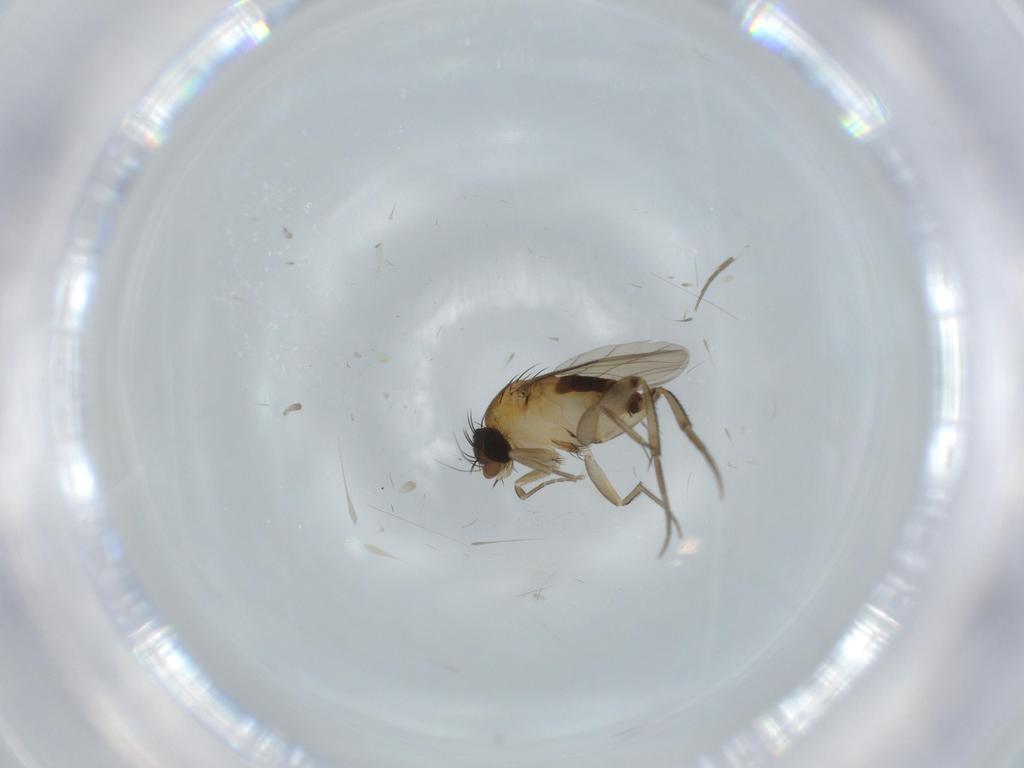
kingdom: Animalia
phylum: Arthropoda
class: Insecta
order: Diptera
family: Phoridae
